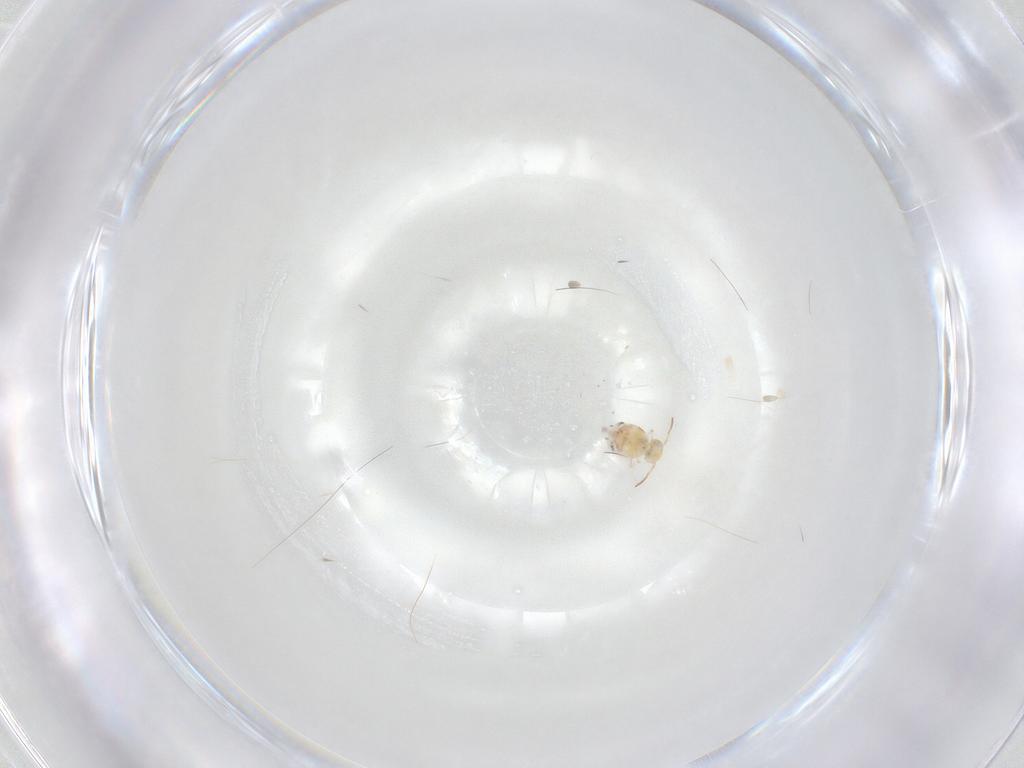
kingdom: Animalia
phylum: Arthropoda
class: Collembola
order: Symphypleona
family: Bourletiellidae
